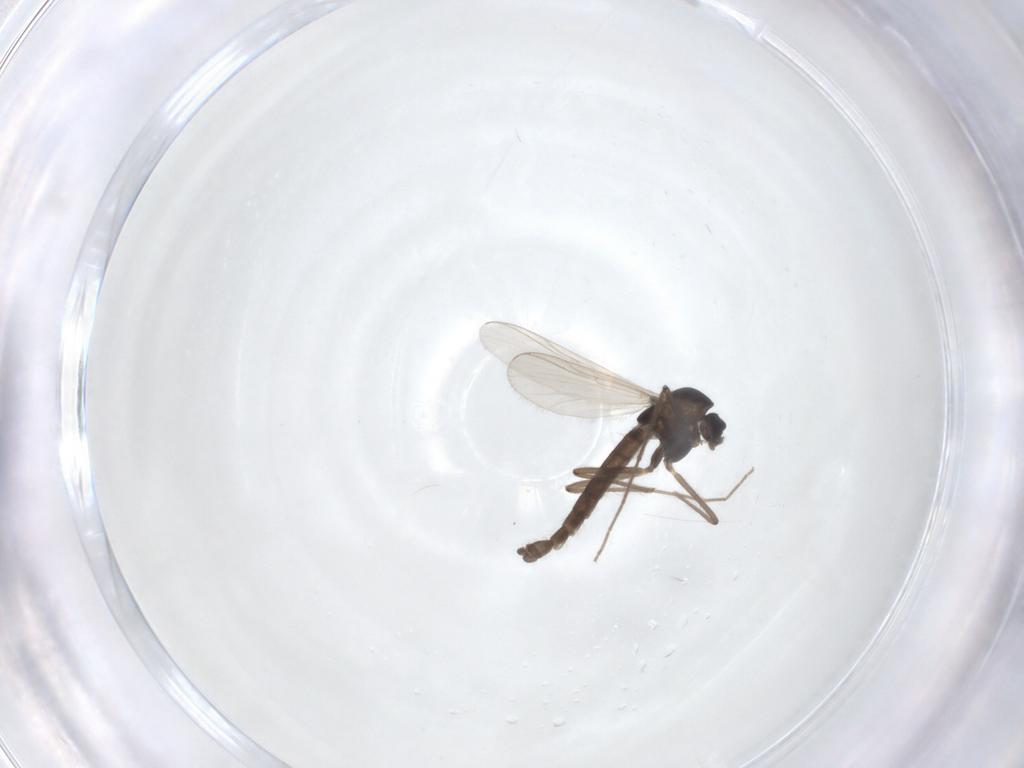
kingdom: Animalia
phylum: Arthropoda
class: Insecta
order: Diptera
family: Chironomidae
